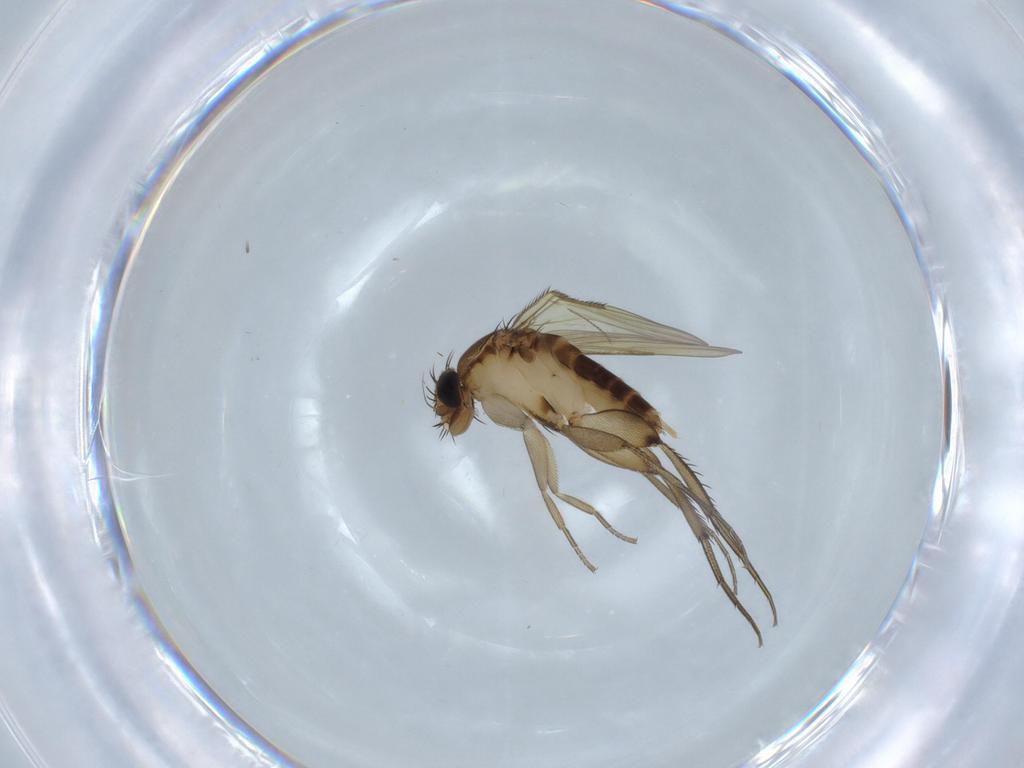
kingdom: Animalia
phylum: Arthropoda
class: Insecta
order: Diptera
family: Phoridae
